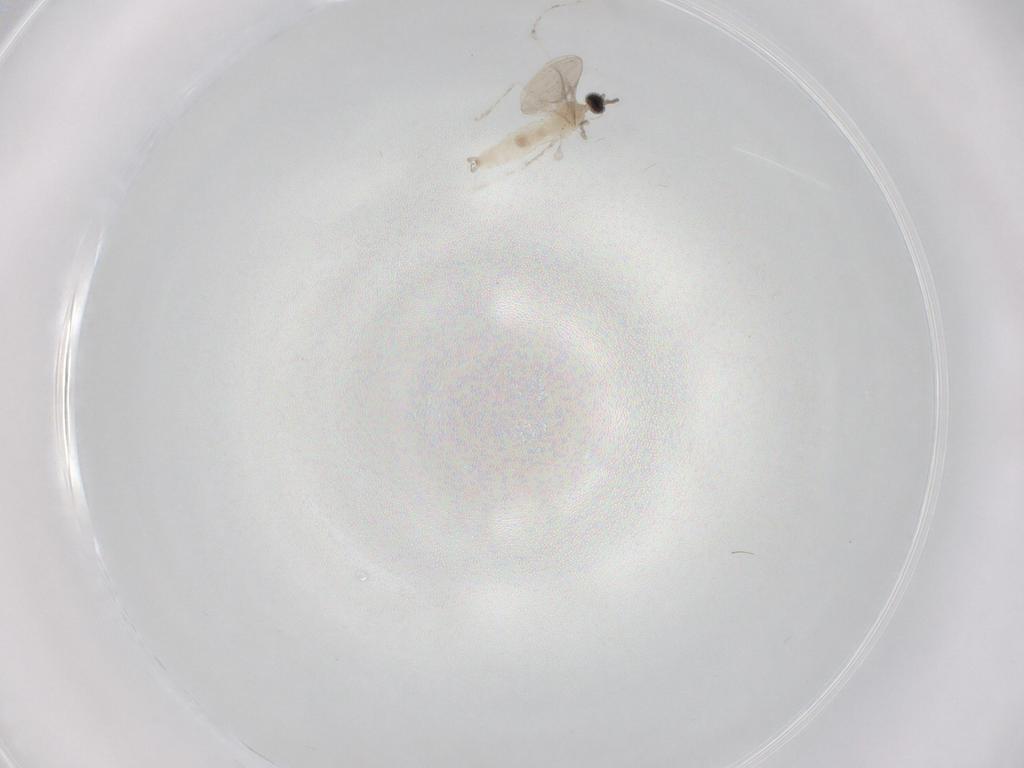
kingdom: Animalia
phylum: Arthropoda
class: Insecta
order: Diptera
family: Cecidomyiidae
